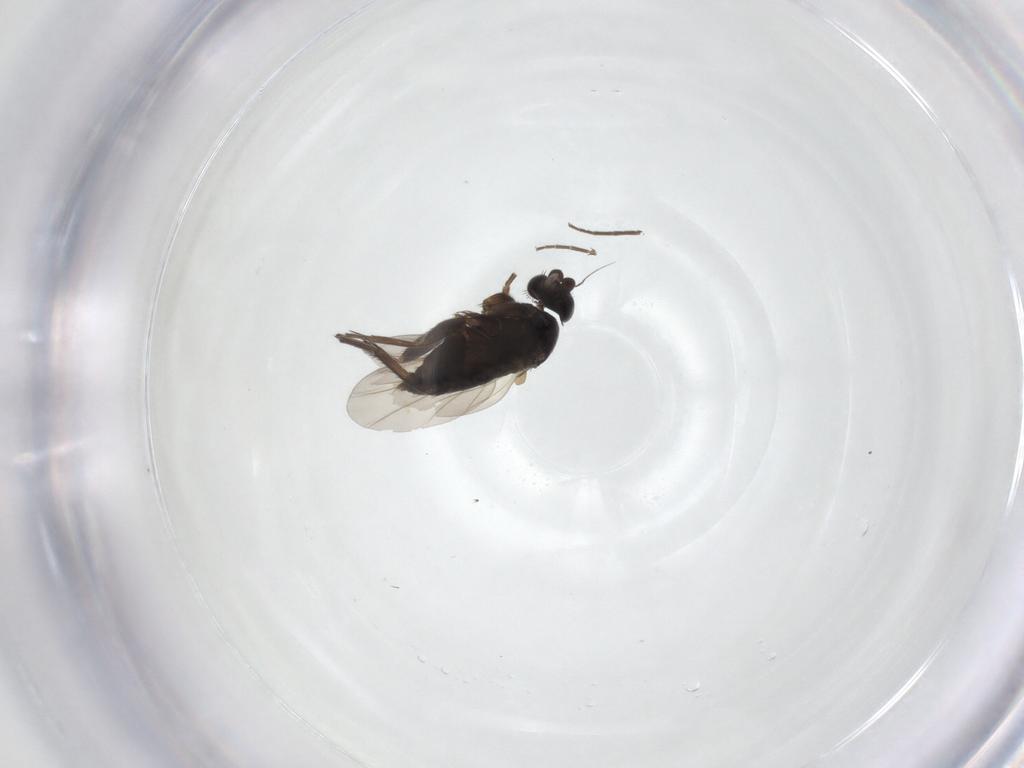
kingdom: Animalia
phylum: Arthropoda
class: Insecta
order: Diptera
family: Phoridae
